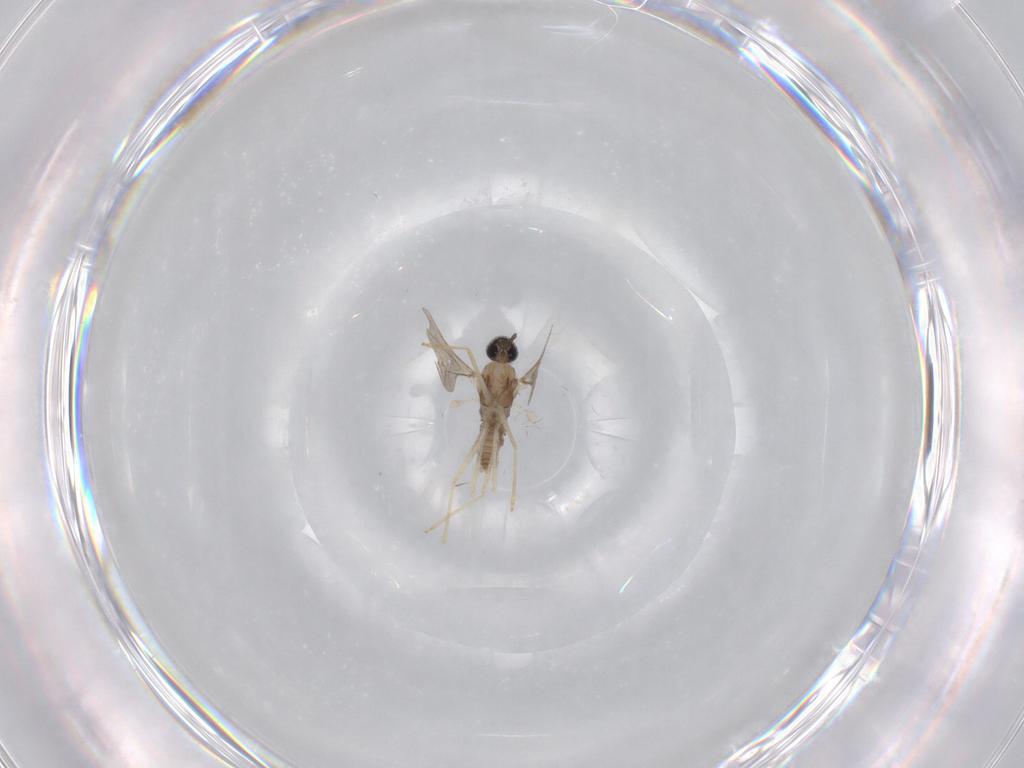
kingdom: Animalia
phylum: Arthropoda
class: Insecta
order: Diptera
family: Cecidomyiidae
